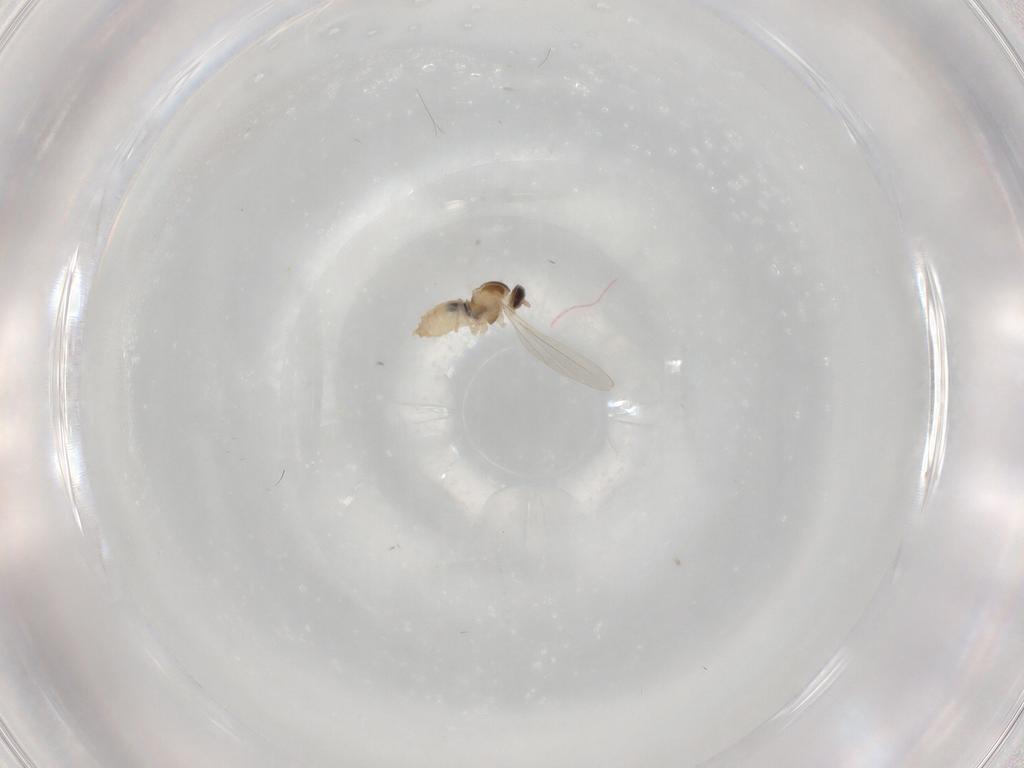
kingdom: Animalia
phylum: Arthropoda
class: Insecta
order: Diptera
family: Cecidomyiidae
